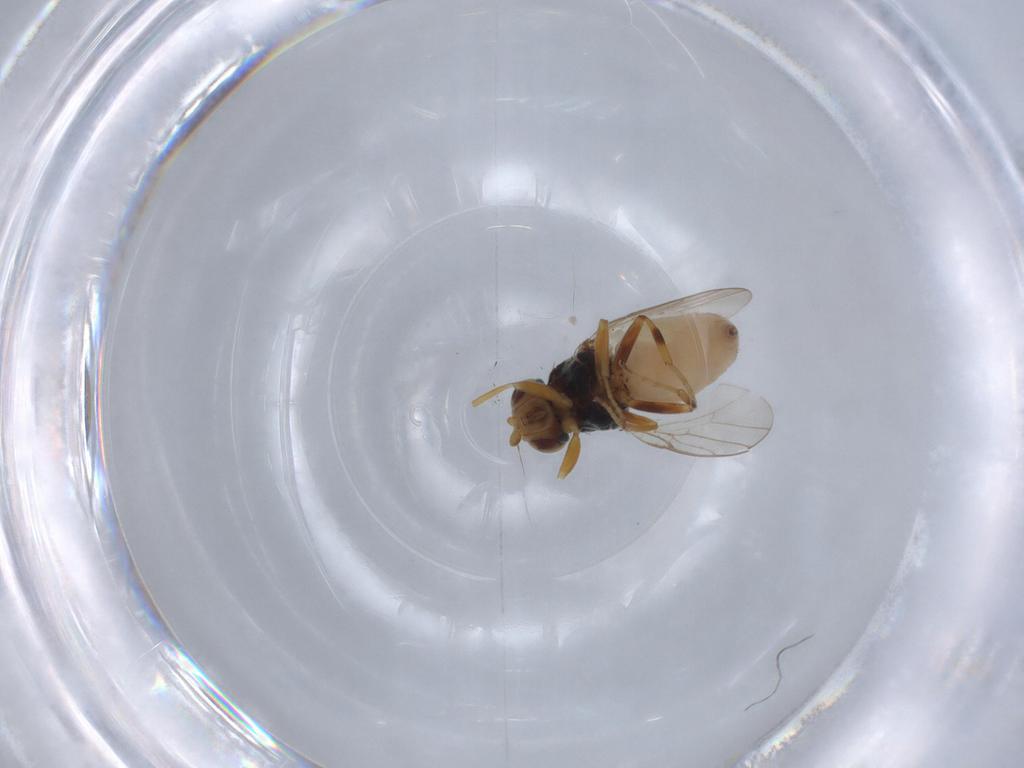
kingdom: Animalia
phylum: Arthropoda
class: Insecta
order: Diptera
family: Chloropidae
